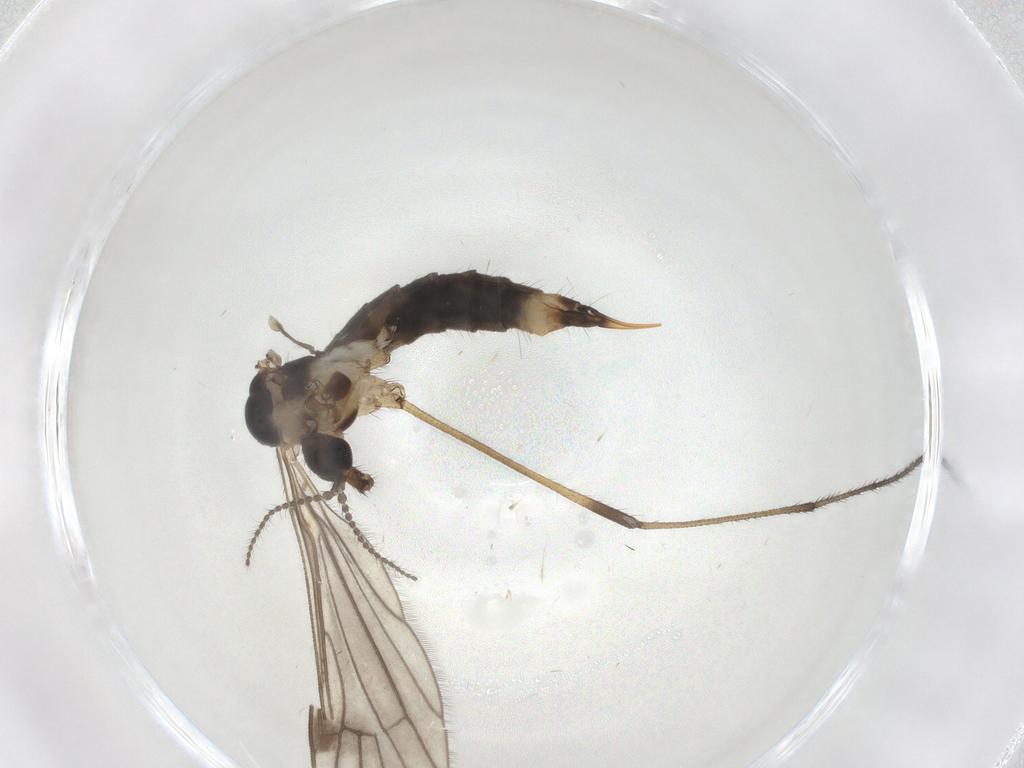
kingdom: Animalia
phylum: Arthropoda
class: Insecta
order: Diptera
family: Limoniidae
